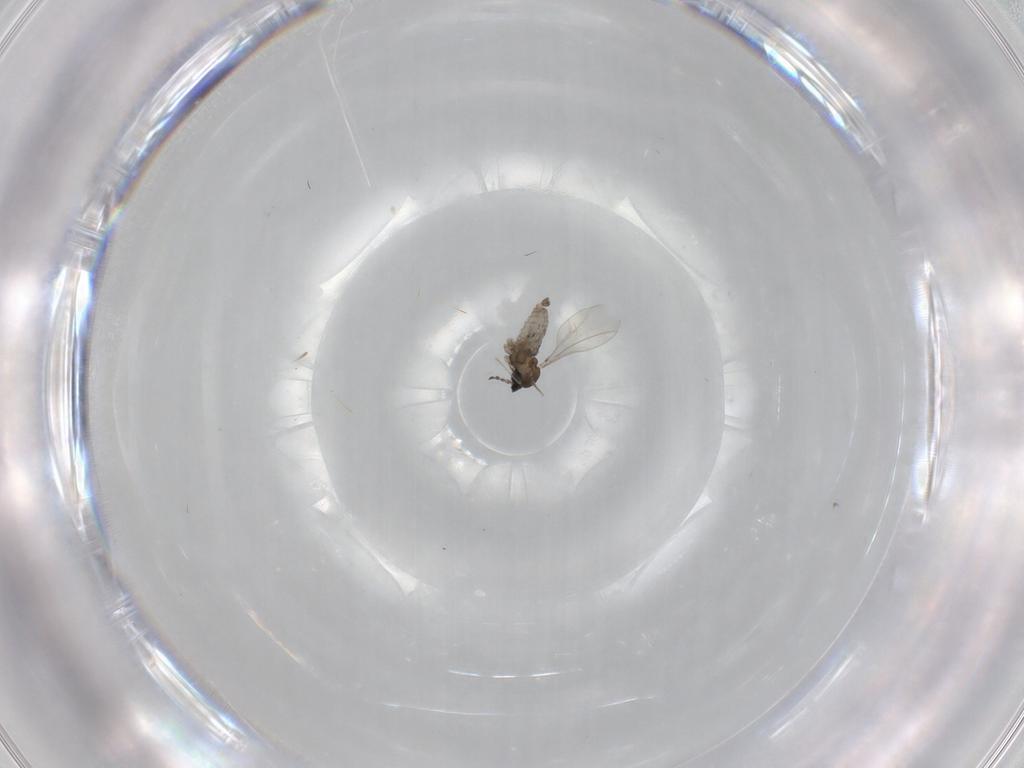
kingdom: Animalia
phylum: Arthropoda
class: Insecta
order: Diptera
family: Cecidomyiidae
